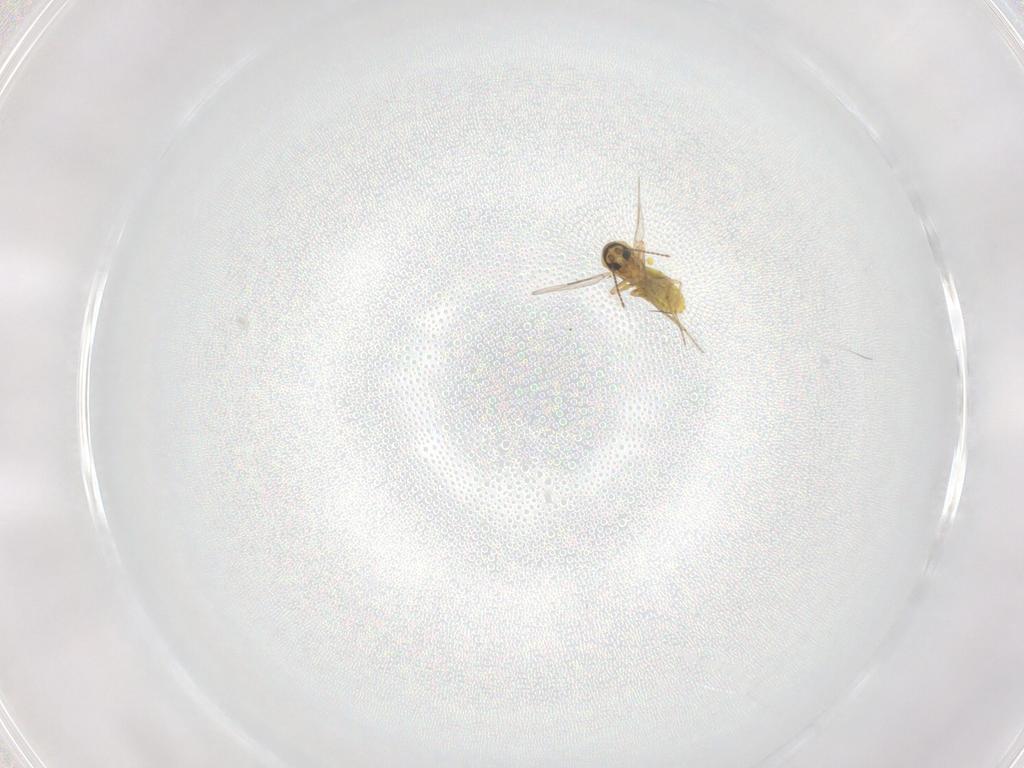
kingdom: Animalia
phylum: Arthropoda
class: Insecta
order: Diptera
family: Ceratopogonidae
